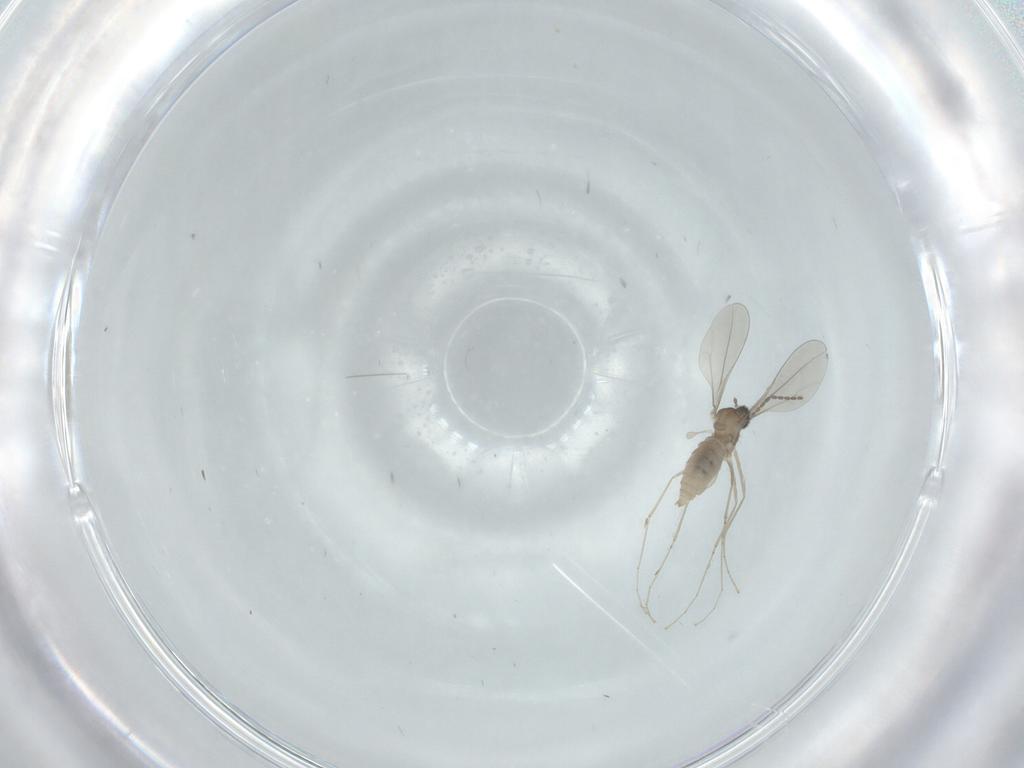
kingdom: Animalia
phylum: Arthropoda
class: Insecta
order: Diptera
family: Cecidomyiidae
